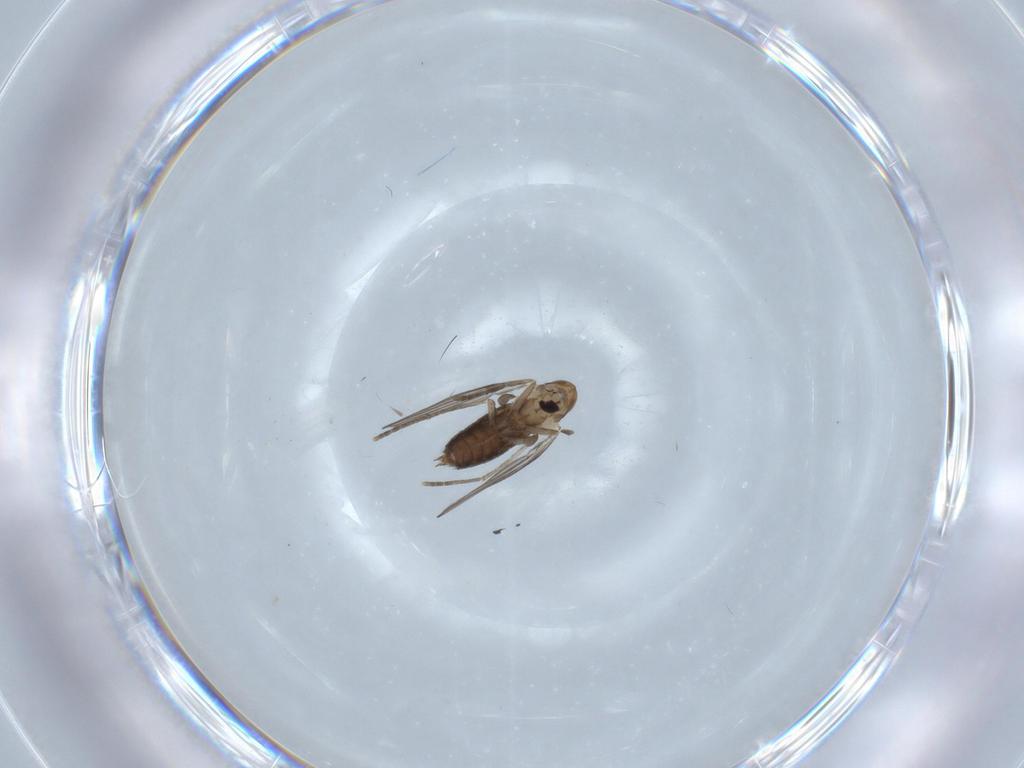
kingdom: Animalia
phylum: Arthropoda
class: Insecta
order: Diptera
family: Cecidomyiidae
